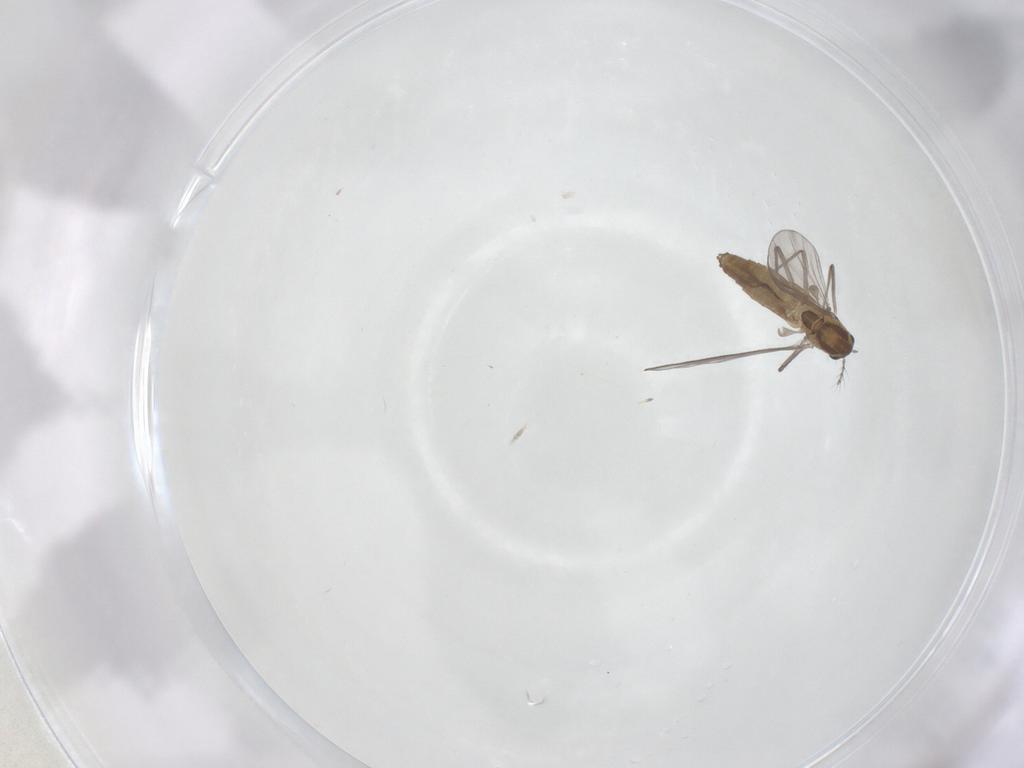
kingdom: Animalia
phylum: Arthropoda
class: Insecta
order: Diptera
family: Chironomidae
